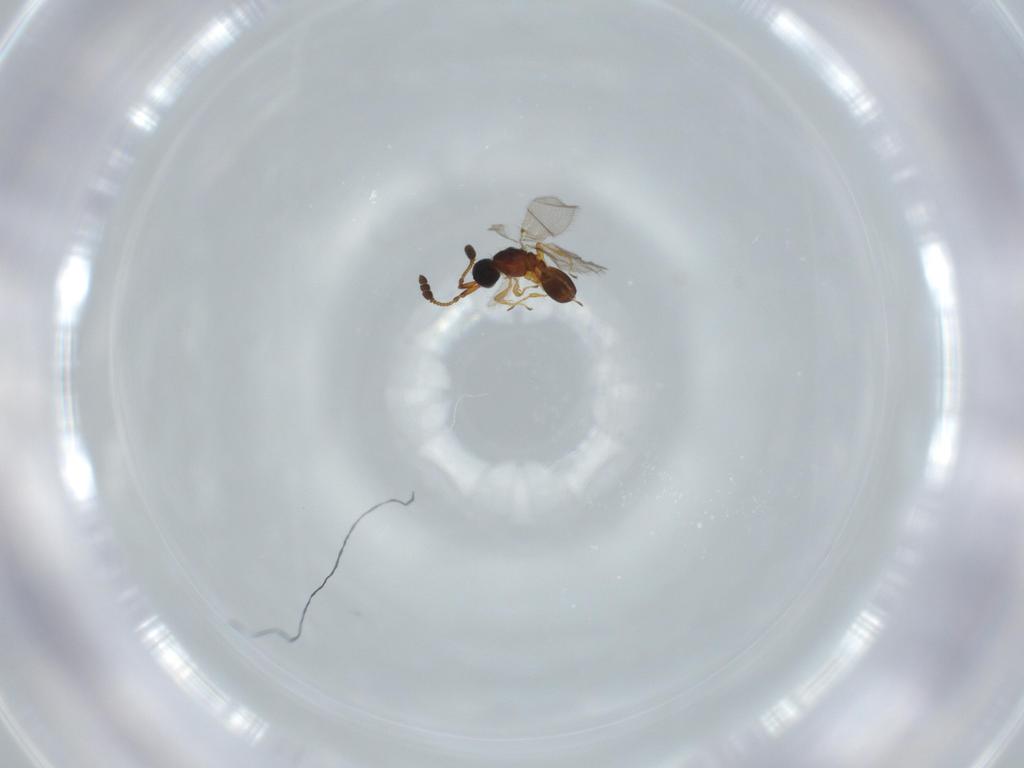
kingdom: Animalia
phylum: Arthropoda
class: Insecta
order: Hymenoptera
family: Diapriidae
